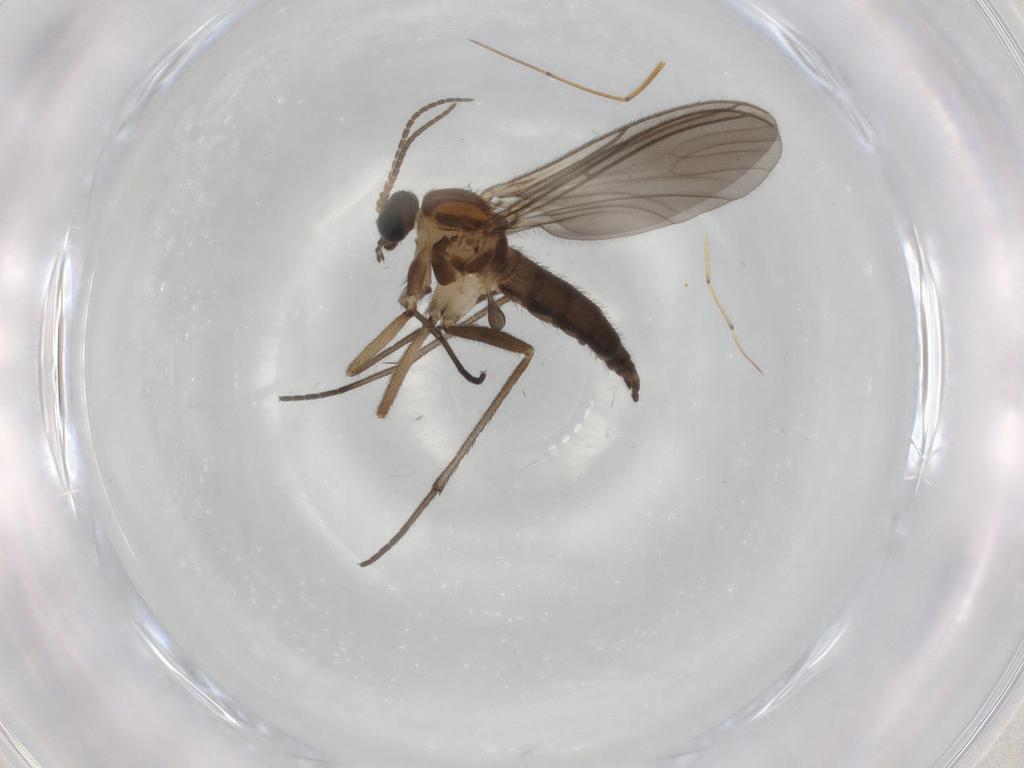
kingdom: Animalia
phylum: Arthropoda
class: Insecta
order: Diptera
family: Sciaridae
